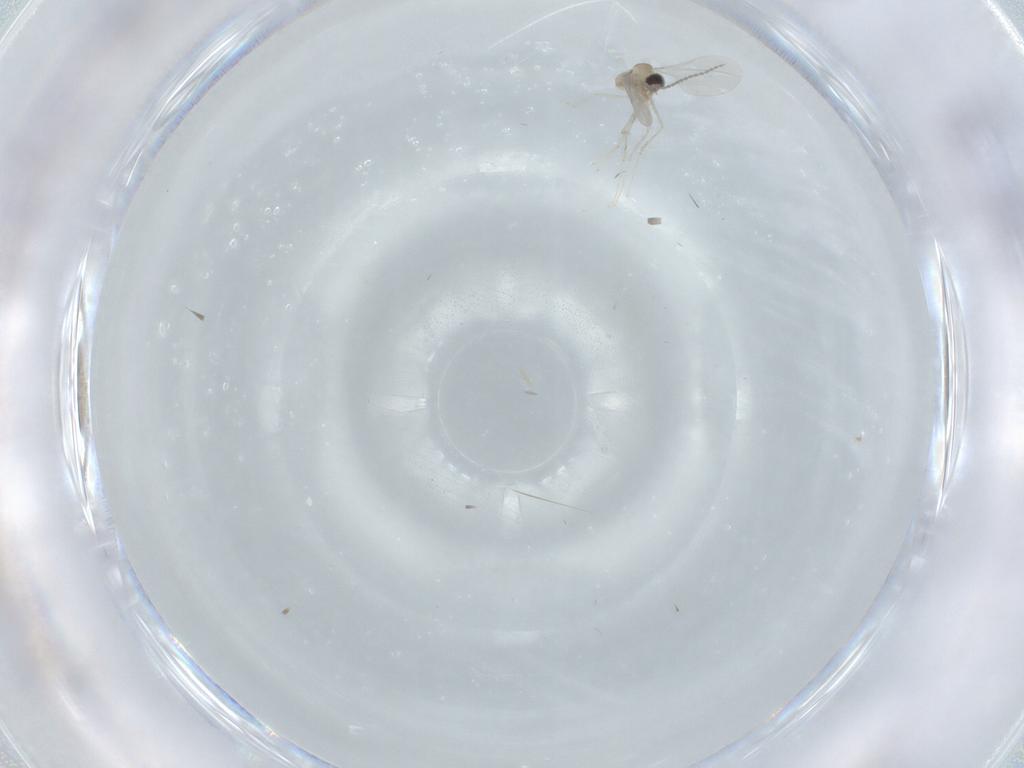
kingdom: Animalia
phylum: Arthropoda
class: Insecta
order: Diptera
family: Cecidomyiidae
